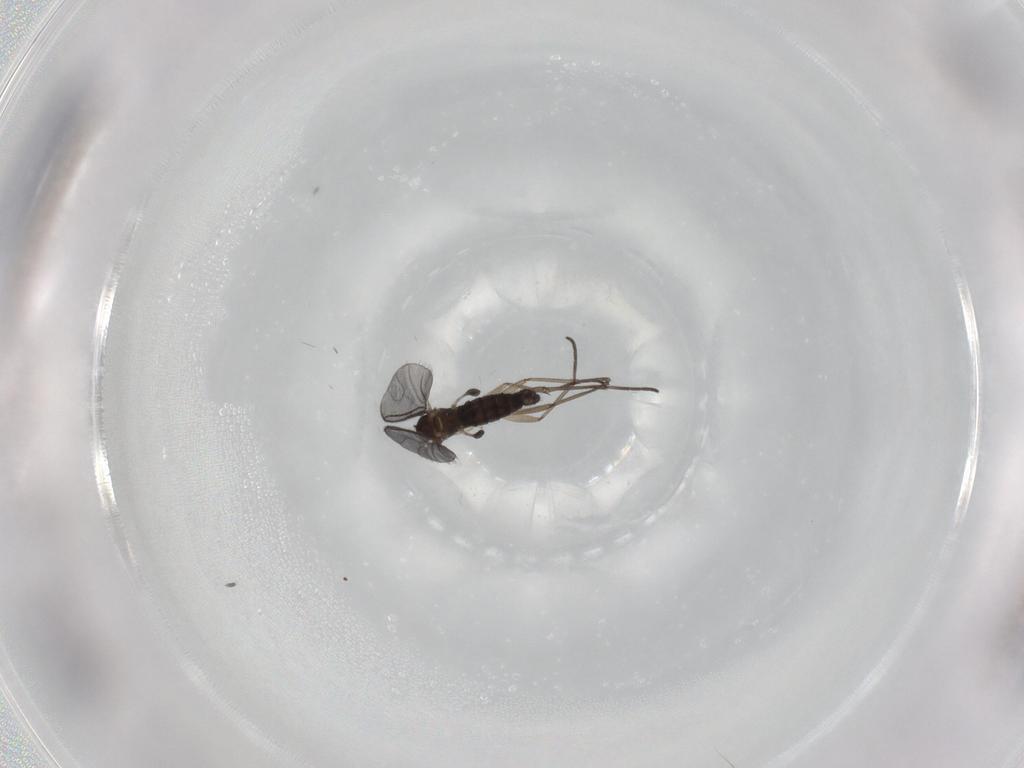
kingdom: Animalia
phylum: Arthropoda
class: Insecta
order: Diptera
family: Sciaridae
